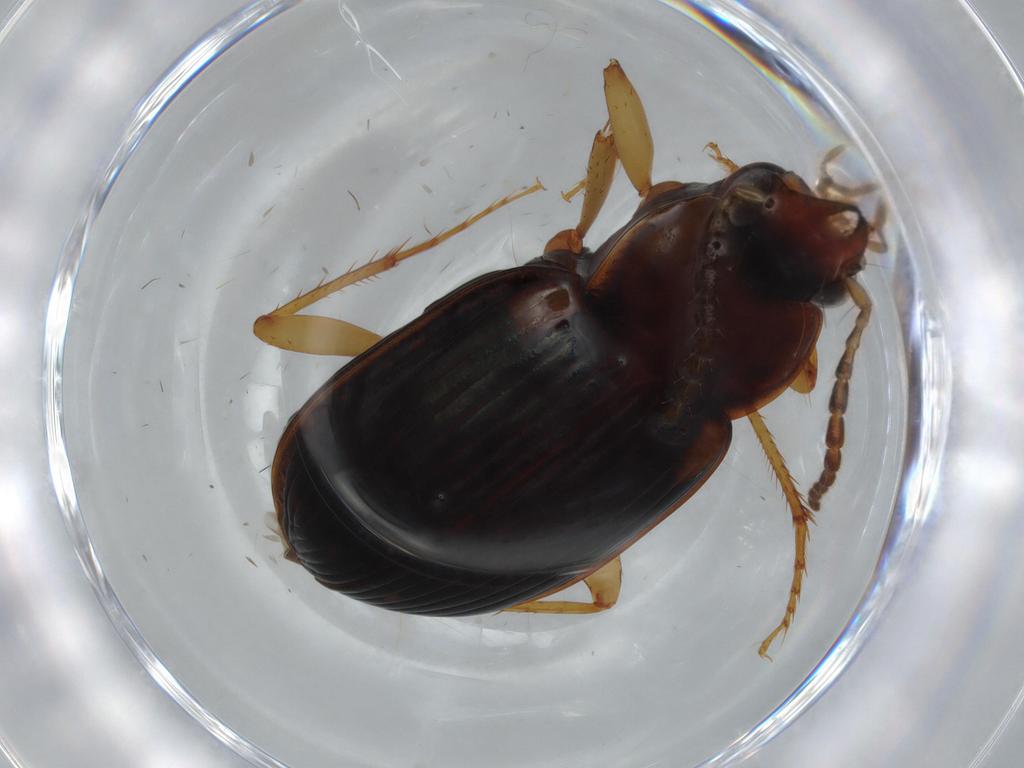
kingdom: Animalia
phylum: Arthropoda
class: Insecta
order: Coleoptera
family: Carabidae
